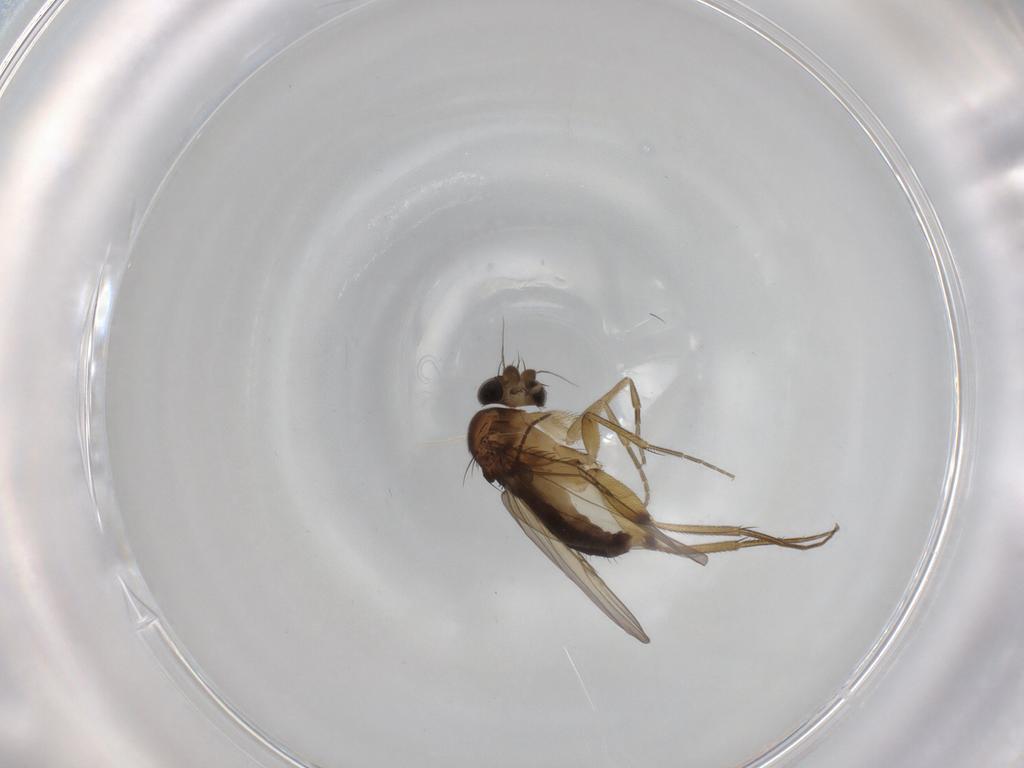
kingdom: Animalia
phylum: Arthropoda
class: Insecta
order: Diptera
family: Phoridae
